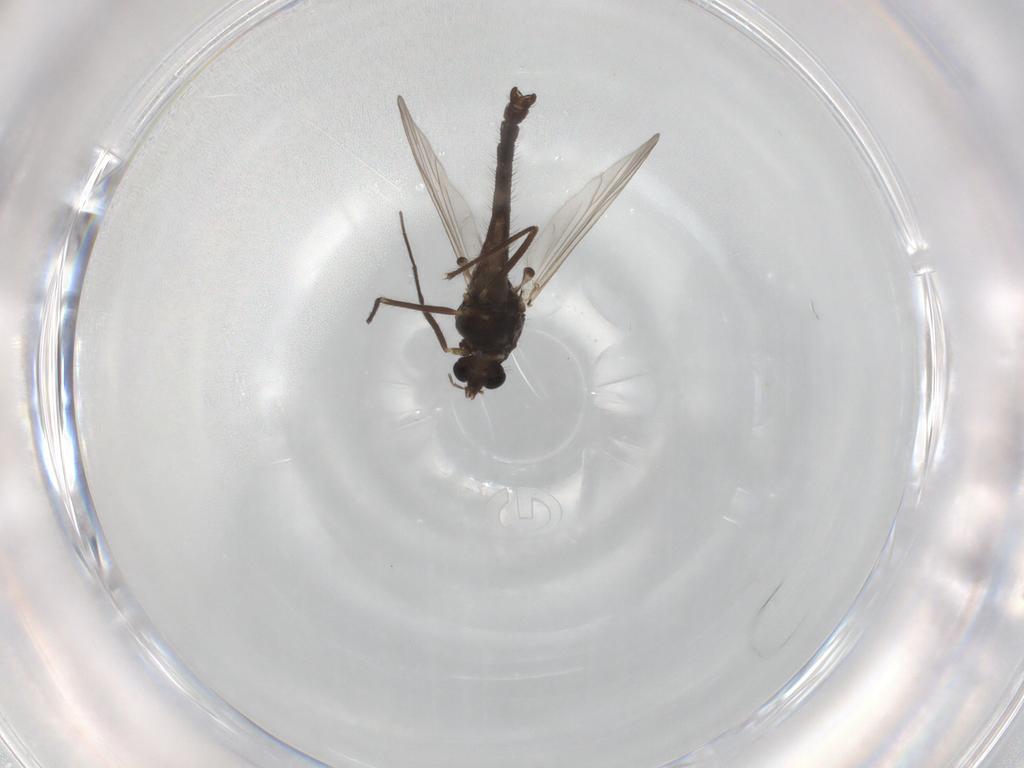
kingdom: Animalia
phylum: Arthropoda
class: Insecta
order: Diptera
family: Chironomidae
